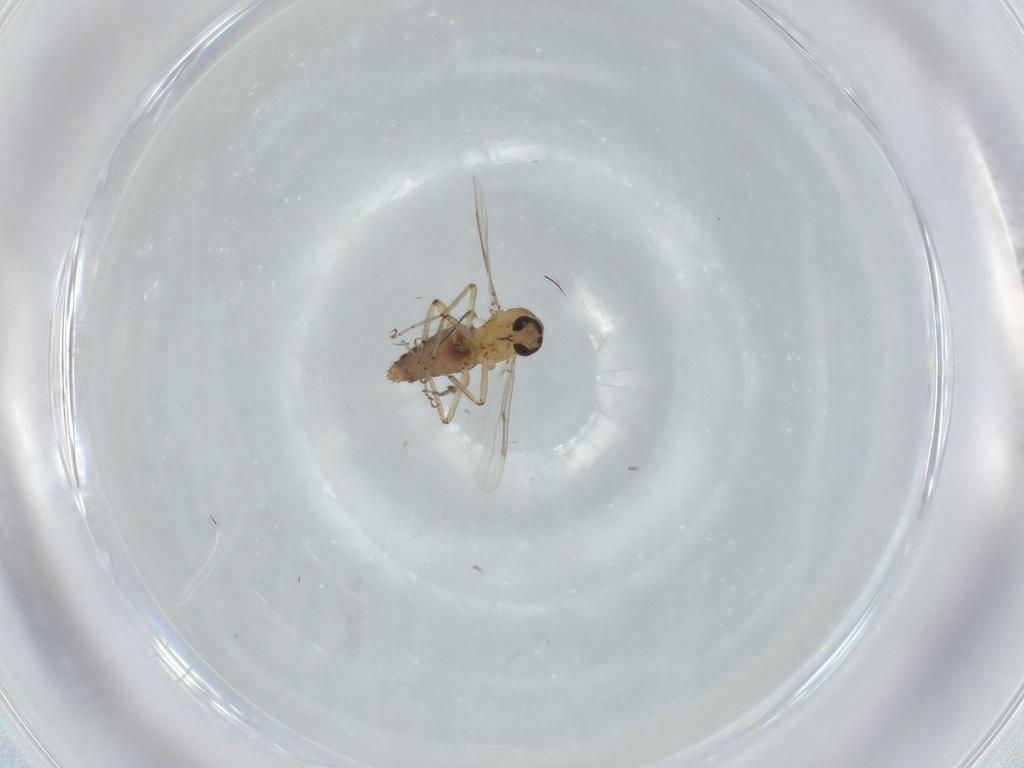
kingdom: Animalia
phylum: Arthropoda
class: Insecta
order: Diptera
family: Ceratopogonidae
